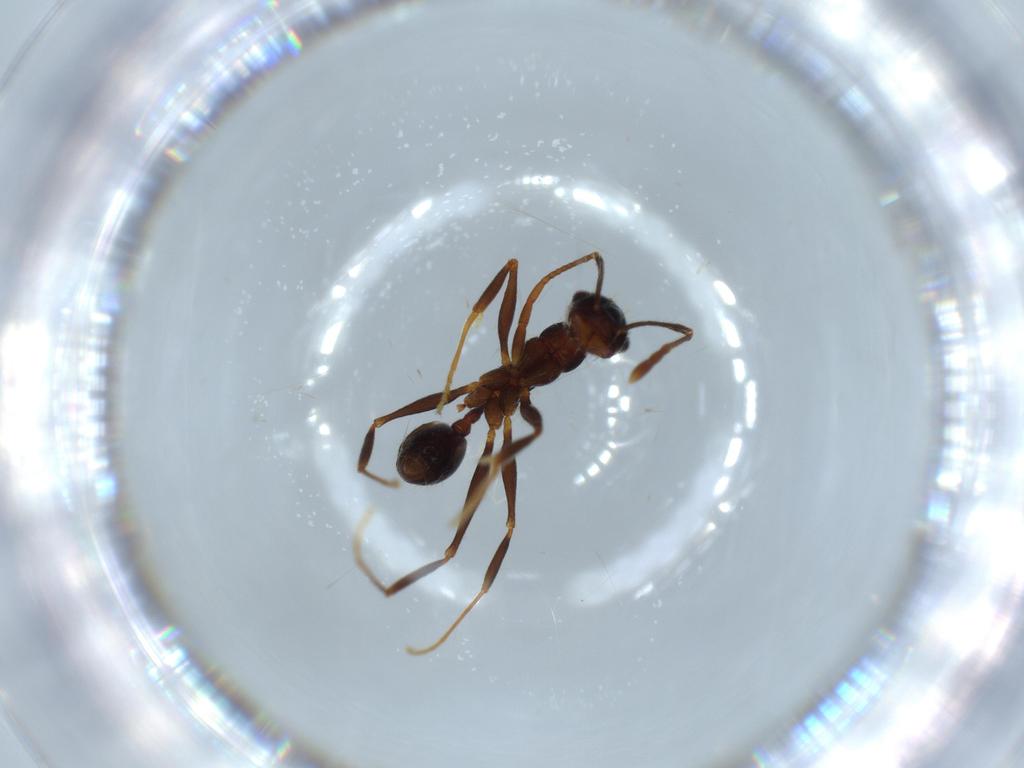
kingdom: Animalia
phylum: Arthropoda
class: Insecta
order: Hymenoptera
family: Formicidae
